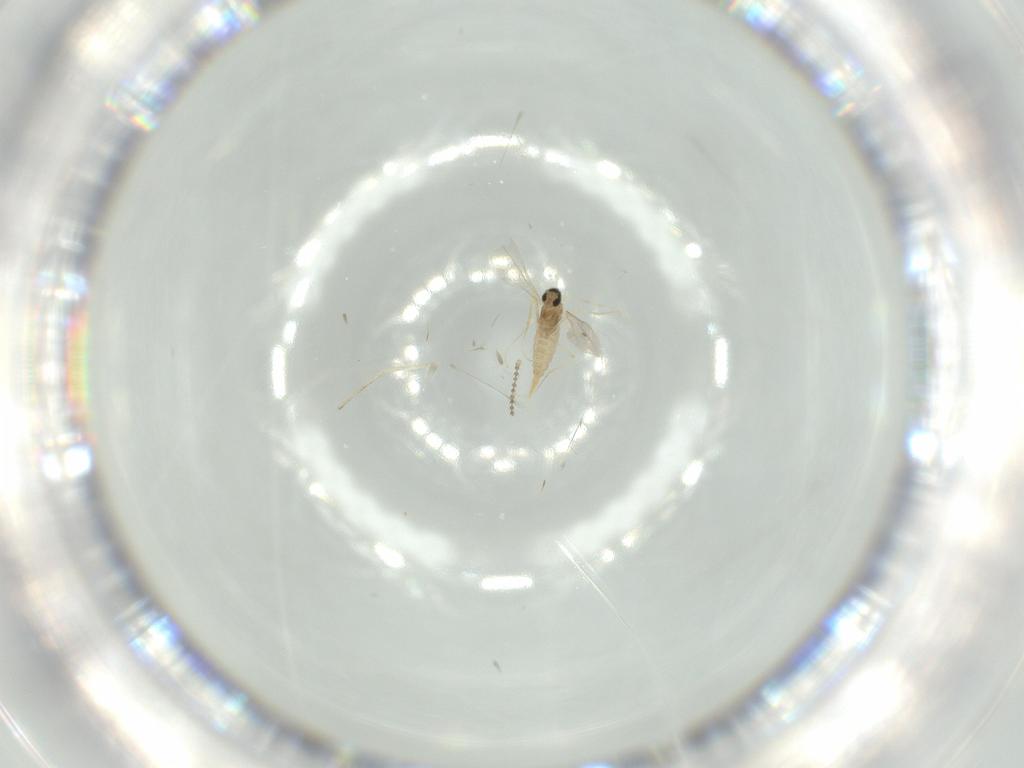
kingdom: Animalia
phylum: Arthropoda
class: Insecta
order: Diptera
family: Cecidomyiidae
